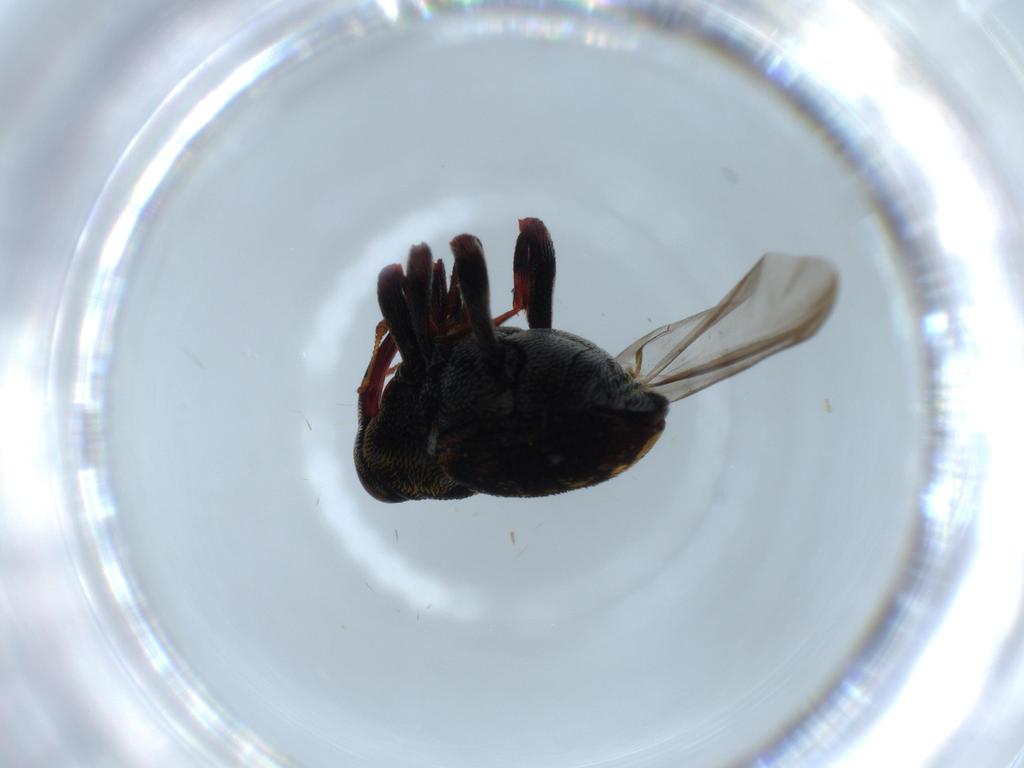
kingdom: Animalia
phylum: Arthropoda
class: Insecta
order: Coleoptera
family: Curculionidae
